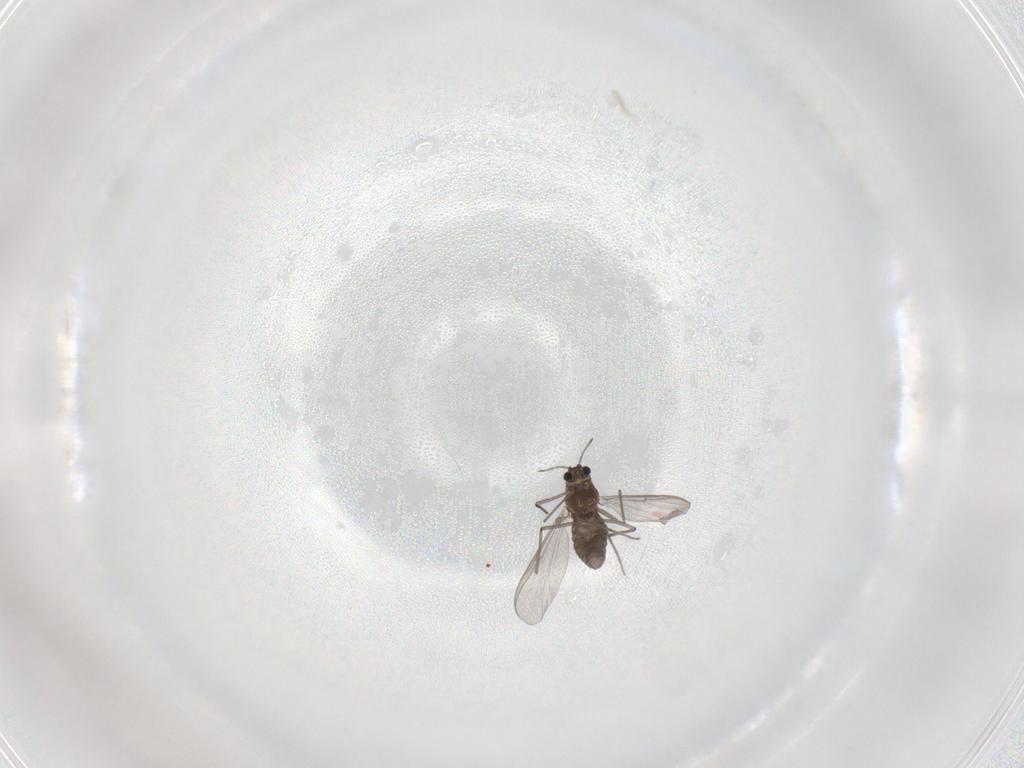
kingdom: Animalia
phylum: Arthropoda
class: Insecta
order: Diptera
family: Chironomidae
